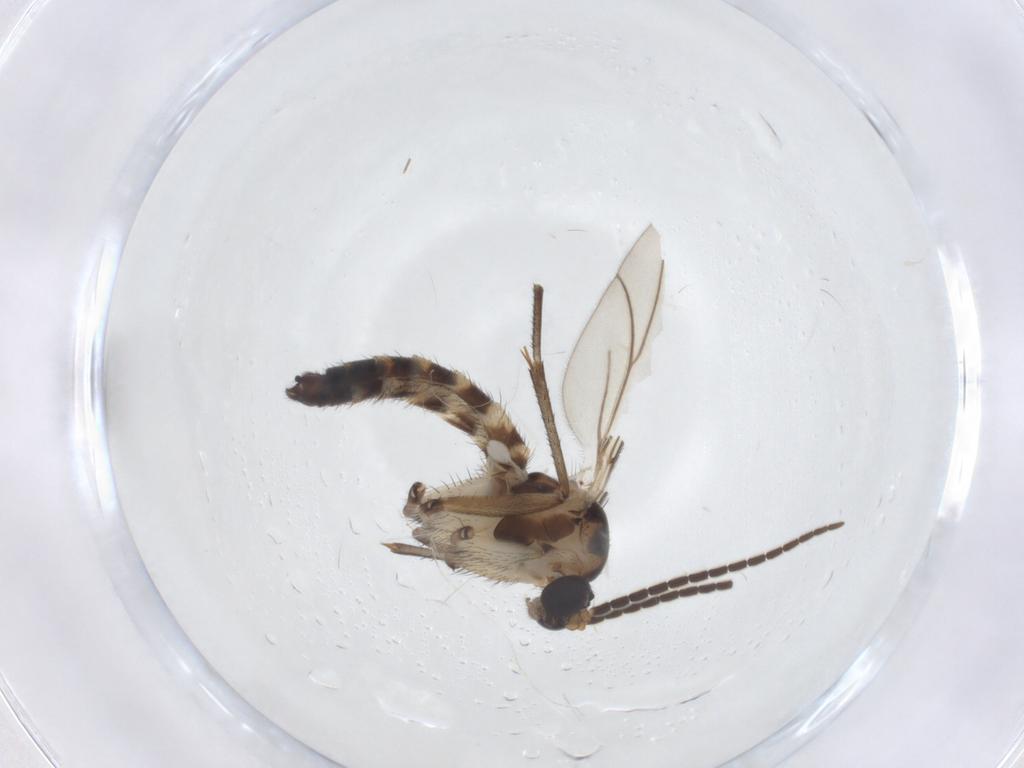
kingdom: Animalia
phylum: Arthropoda
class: Insecta
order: Diptera
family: Mycetophilidae
